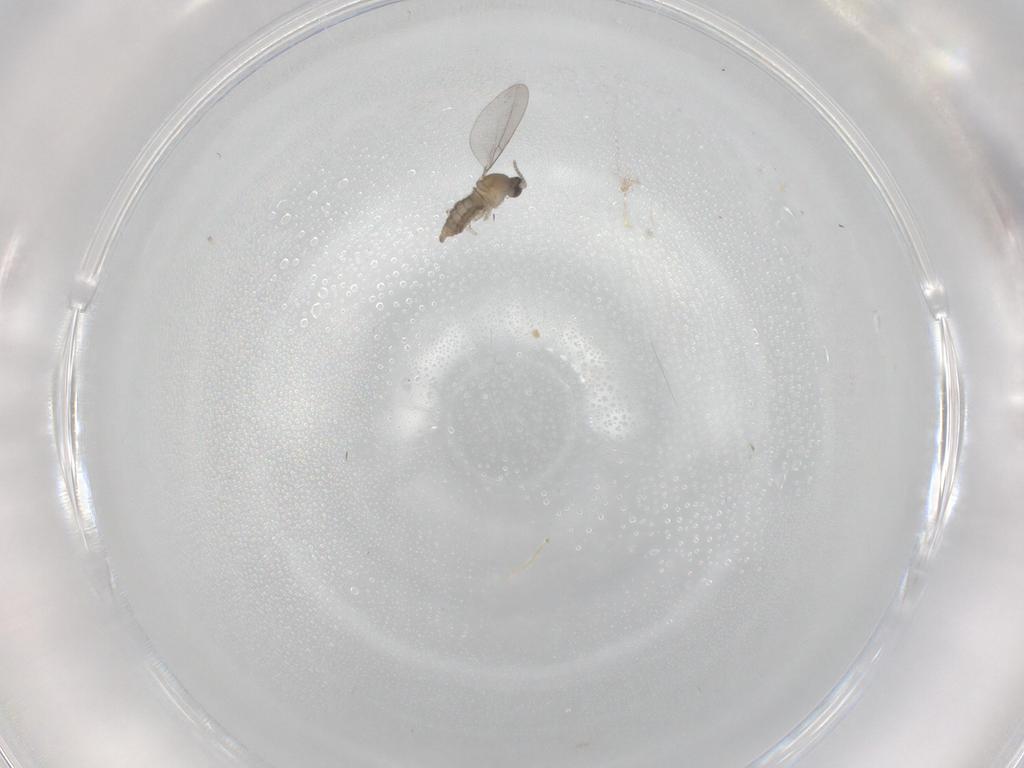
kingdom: Animalia
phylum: Arthropoda
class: Insecta
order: Diptera
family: Cecidomyiidae
